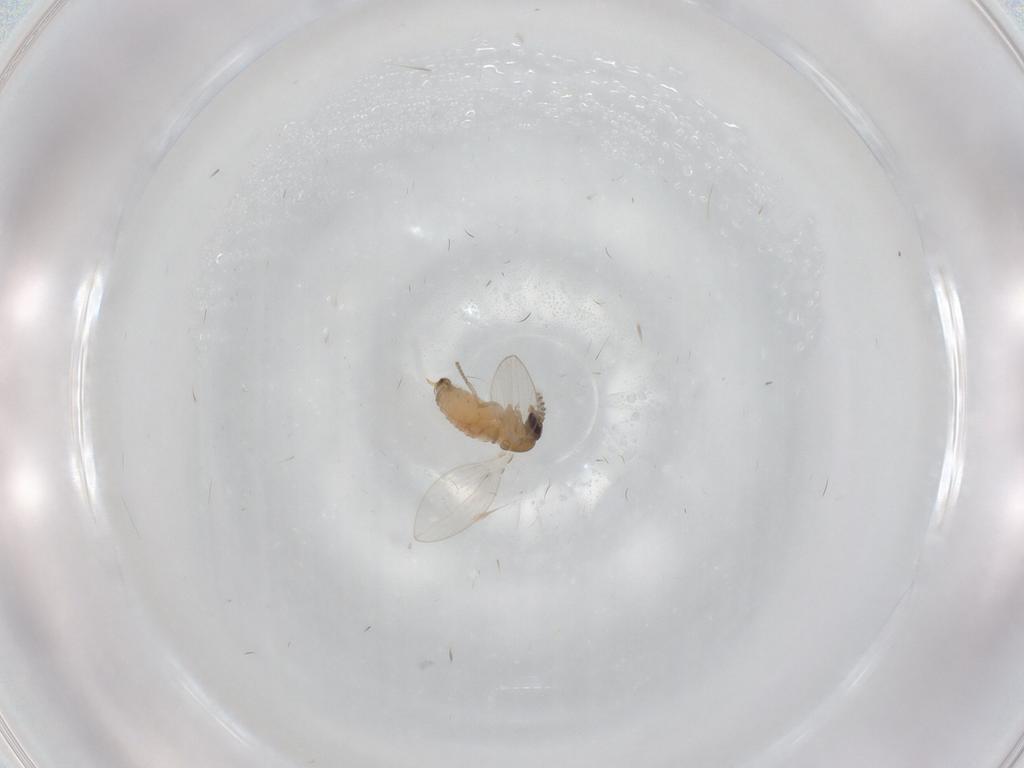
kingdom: Animalia
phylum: Arthropoda
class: Insecta
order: Diptera
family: Psychodidae
